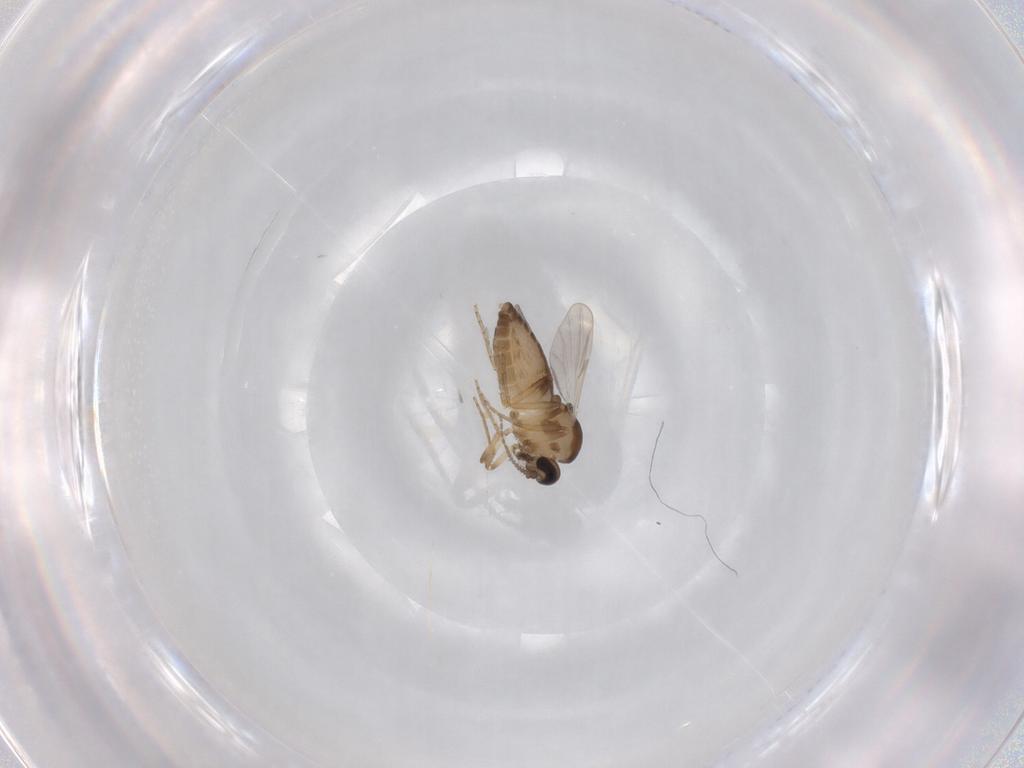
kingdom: Animalia
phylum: Arthropoda
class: Insecta
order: Diptera
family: Ceratopogonidae
